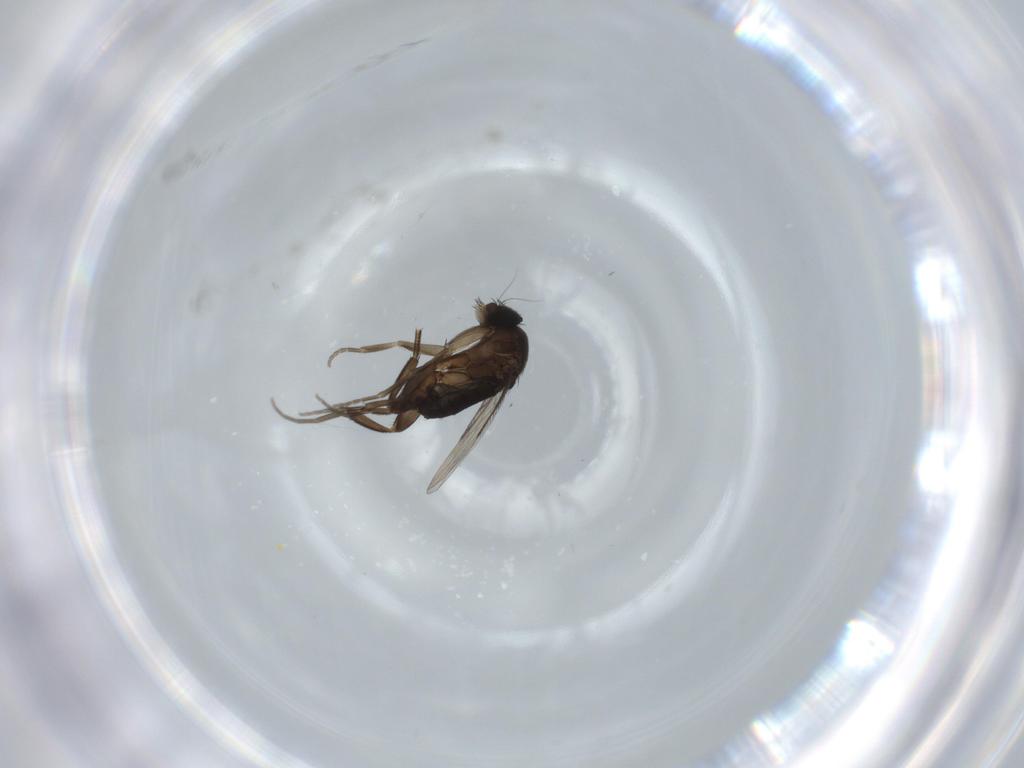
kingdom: Animalia
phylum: Arthropoda
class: Insecta
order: Diptera
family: Phoridae
